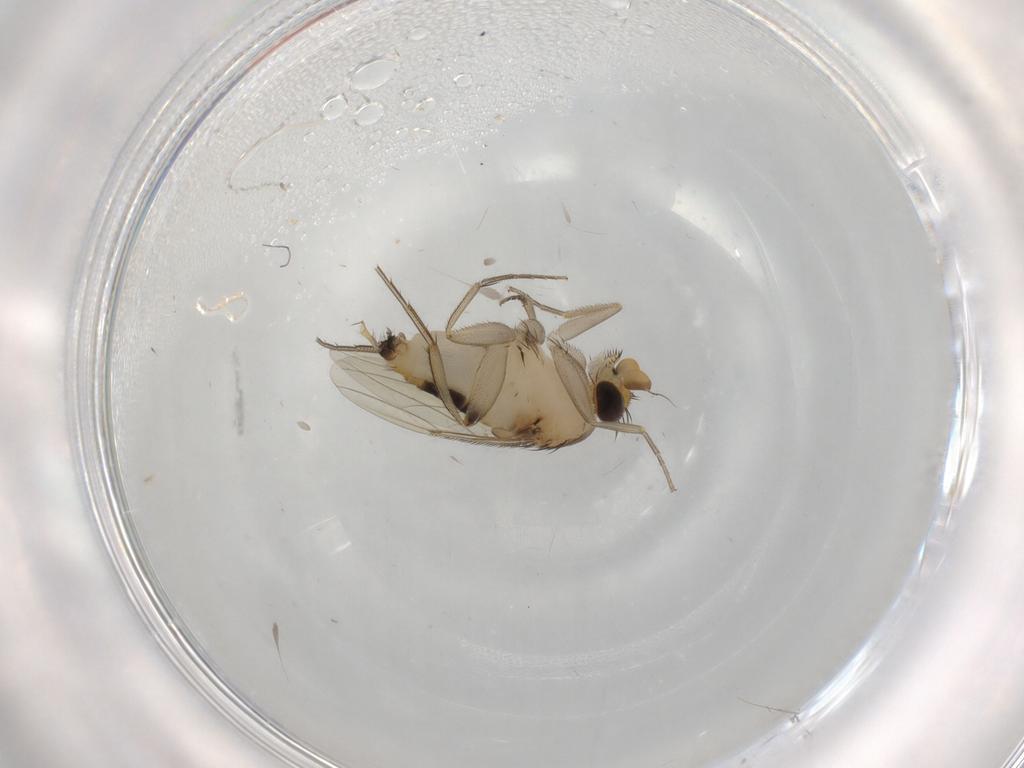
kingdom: Animalia
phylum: Arthropoda
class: Insecta
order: Diptera
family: Phoridae
